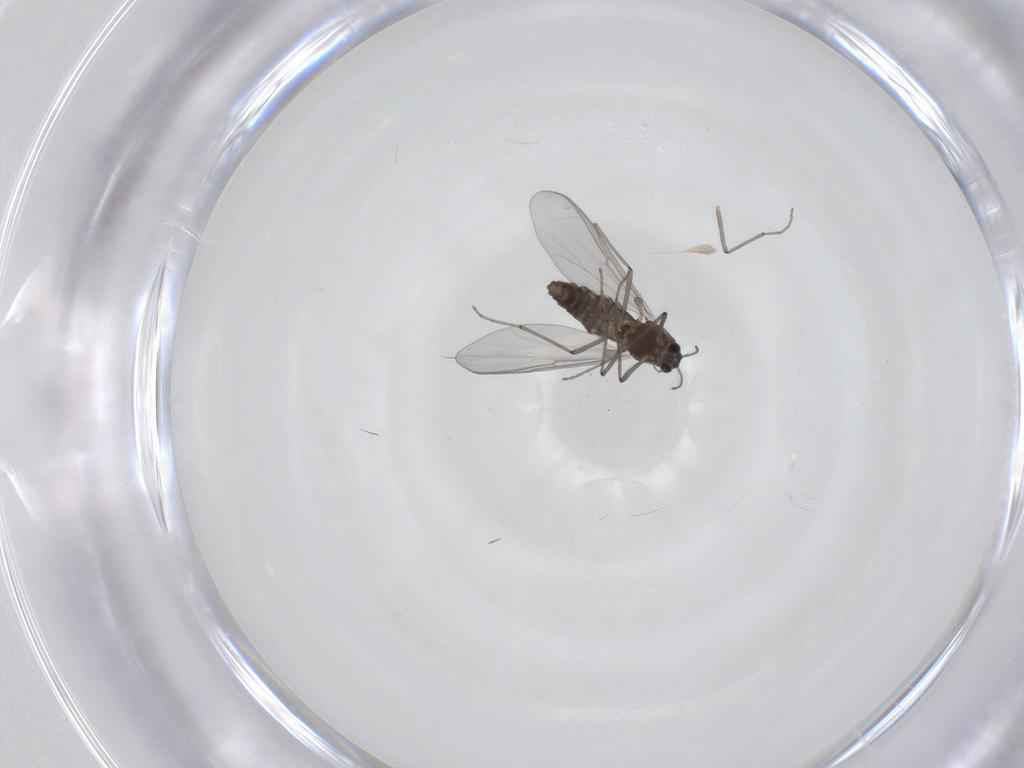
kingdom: Animalia
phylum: Arthropoda
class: Insecta
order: Diptera
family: Chironomidae
